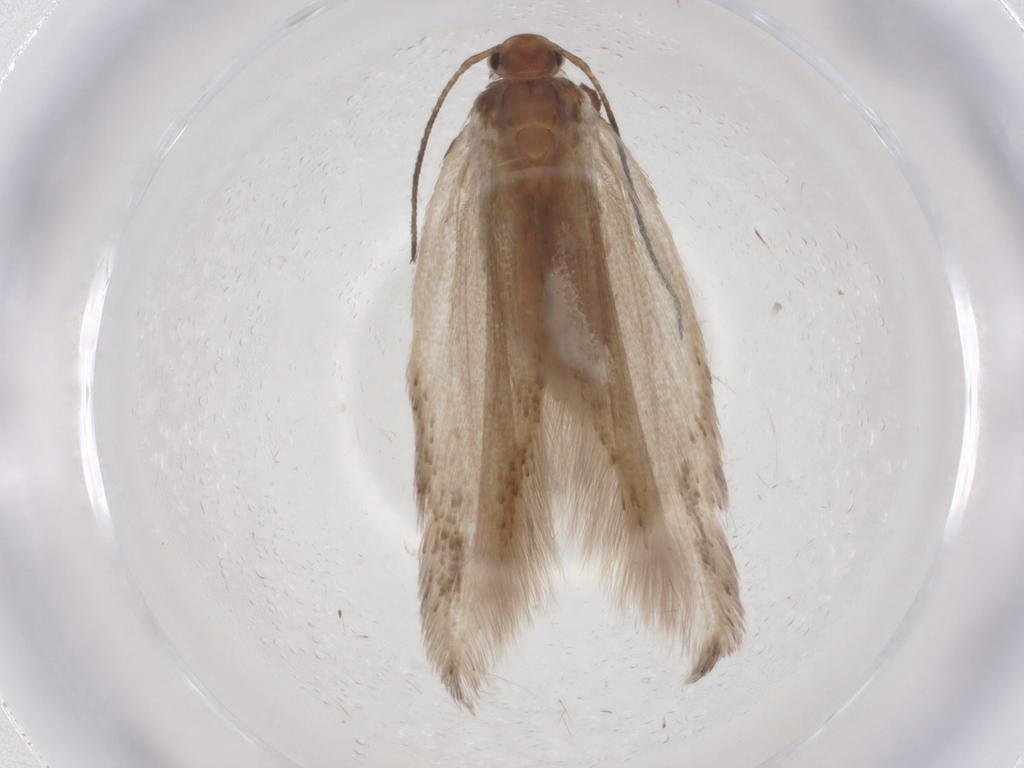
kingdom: Animalia
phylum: Arthropoda
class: Insecta
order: Lepidoptera
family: Gelechiidae
